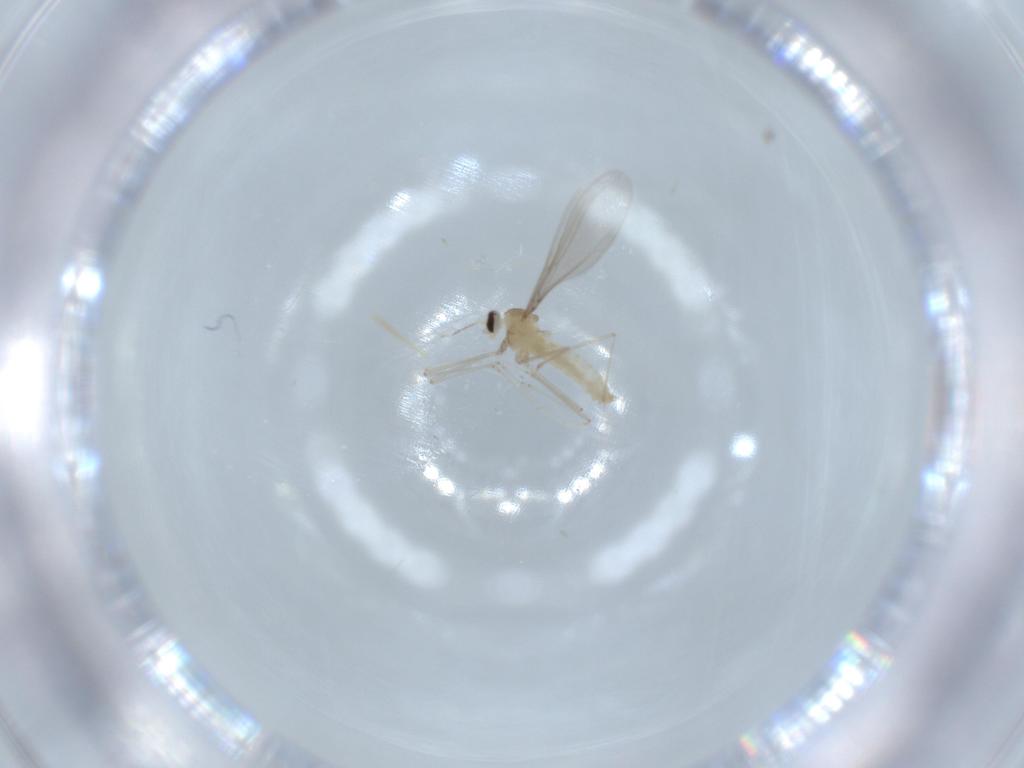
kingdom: Animalia
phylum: Arthropoda
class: Insecta
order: Diptera
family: Cecidomyiidae
